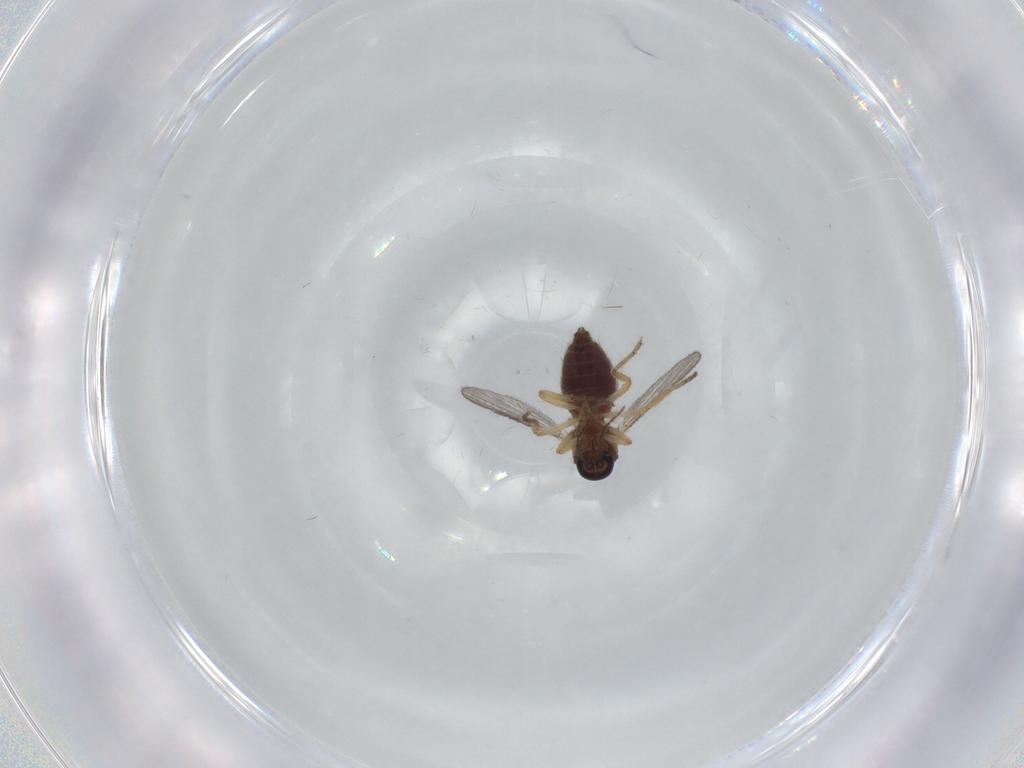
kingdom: Animalia
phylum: Arthropoda
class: Insecta
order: Diptera
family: Ceratopogonidae
